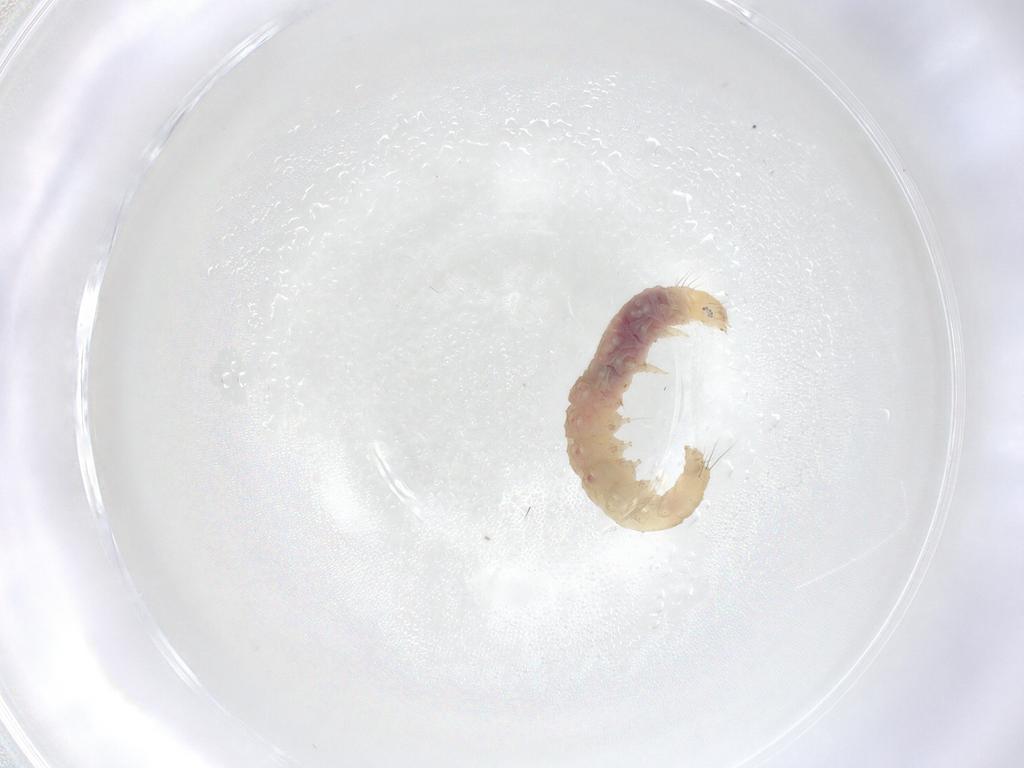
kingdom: Animalia
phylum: Arthropoda
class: Insecta
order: Lepidoptera
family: Gelechiidae
